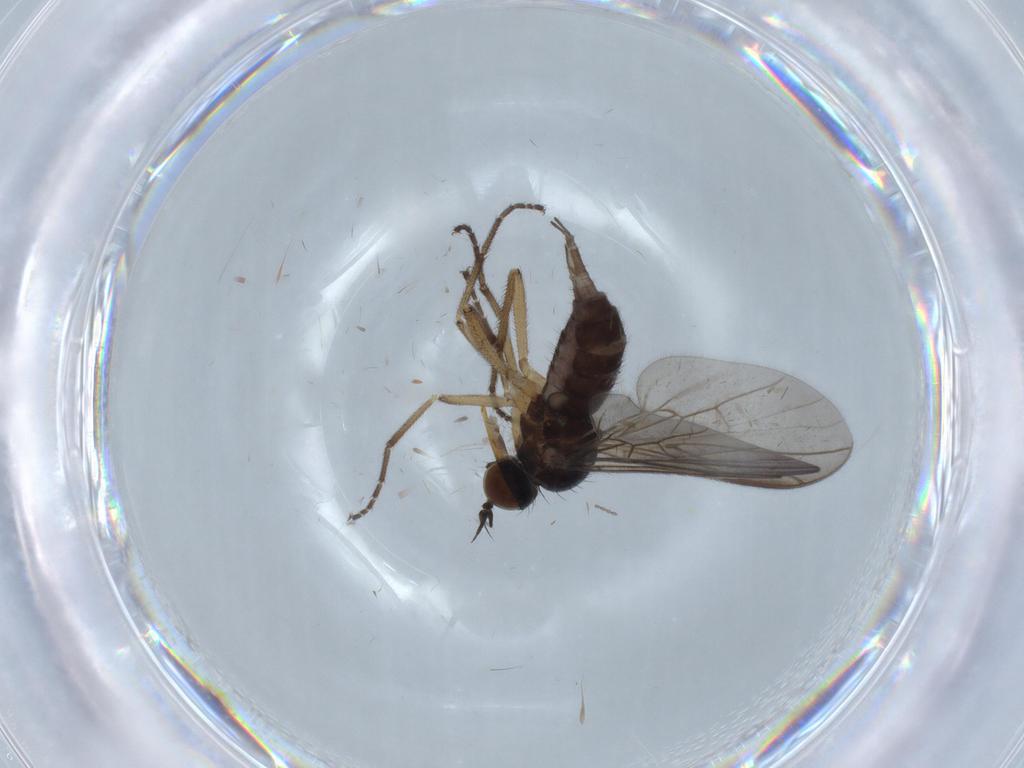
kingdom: Animalia
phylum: Arthropoda
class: Insecta
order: Diptera
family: Empididae
